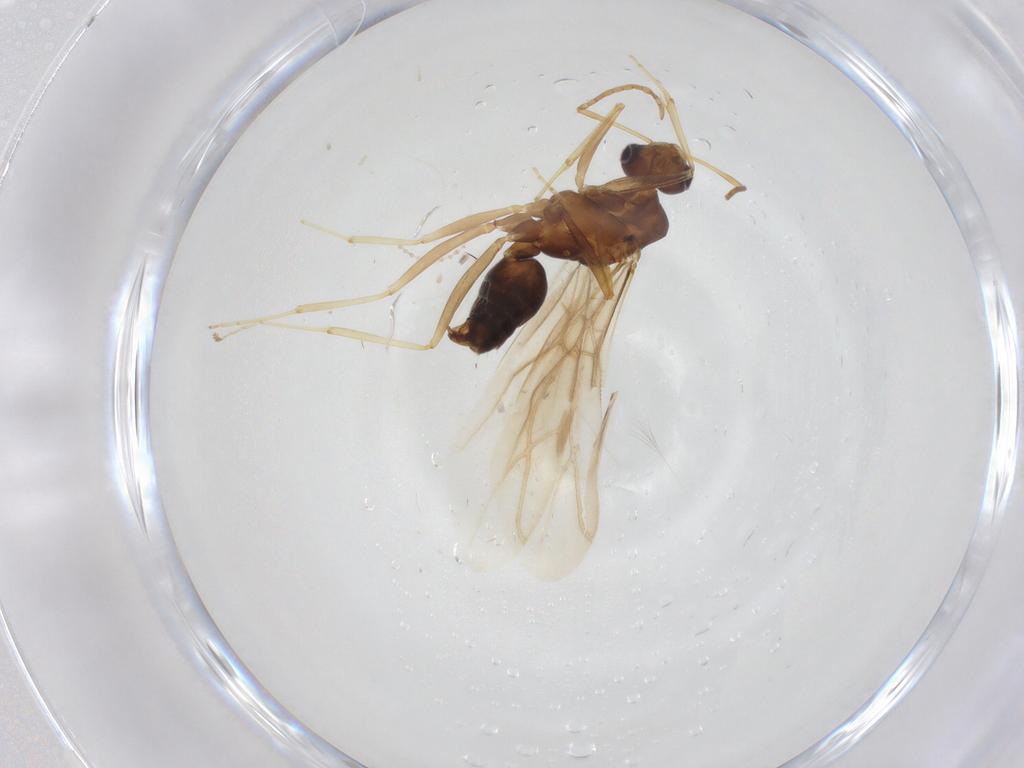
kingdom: Animalia
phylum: Arthropoda
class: Insecta
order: Hymenoptera
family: Formicidae
